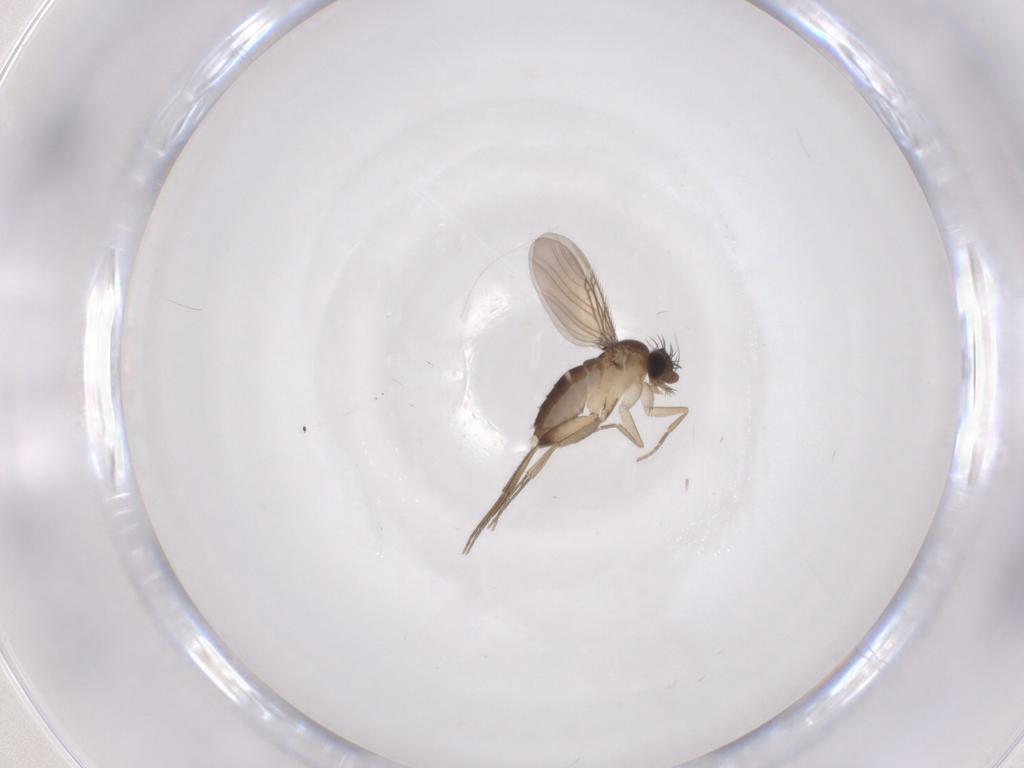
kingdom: Animalia
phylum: Arthropoda
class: Insecta
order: Diptera
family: Phoridae
